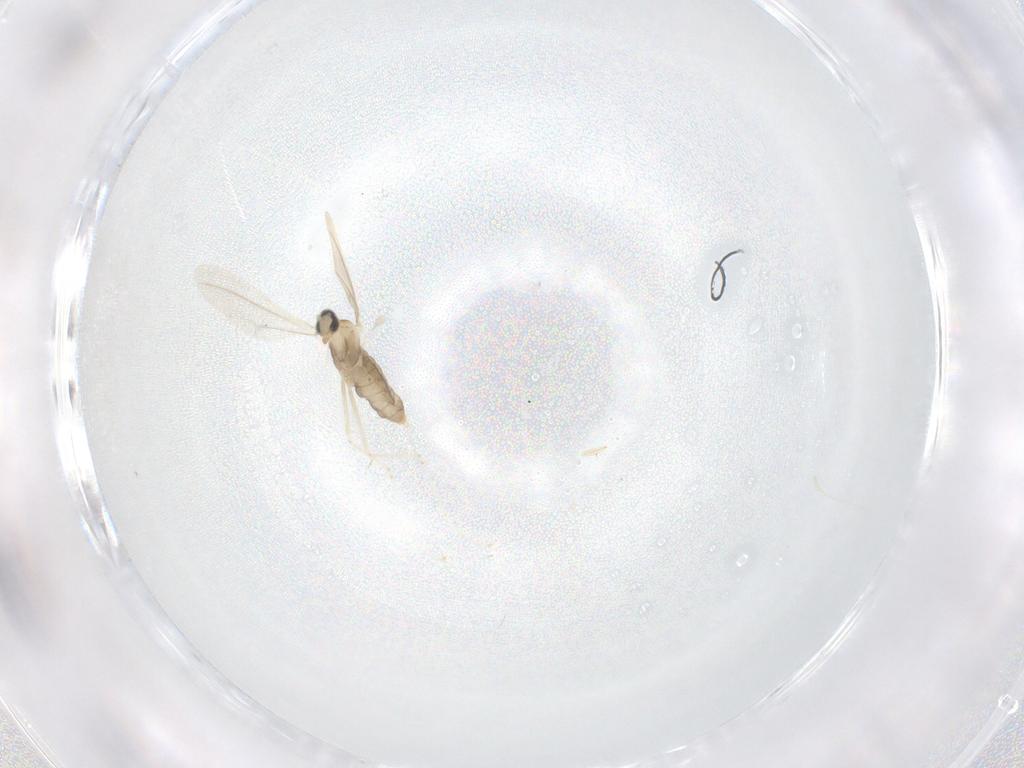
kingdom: Animalia
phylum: Arthropoda
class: Insecta
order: Diptera
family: Cecidomyiidae
